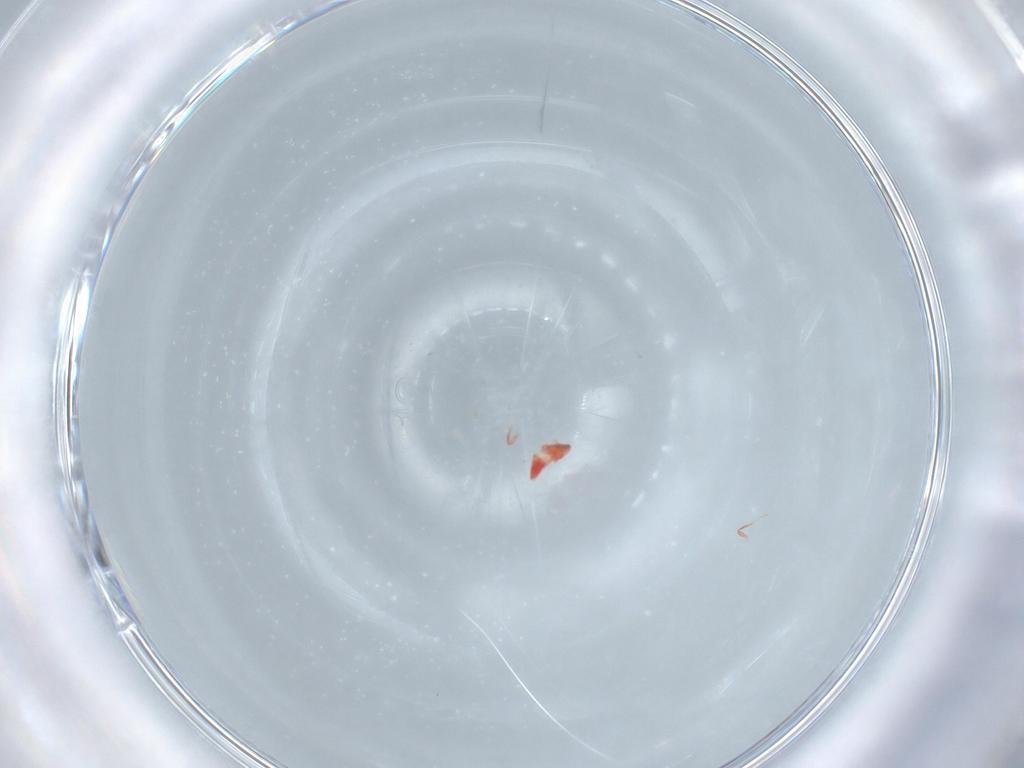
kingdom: Animalia
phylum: Arthropoda
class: Insecta
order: Hymenoptera
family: Trichogrammatidae
